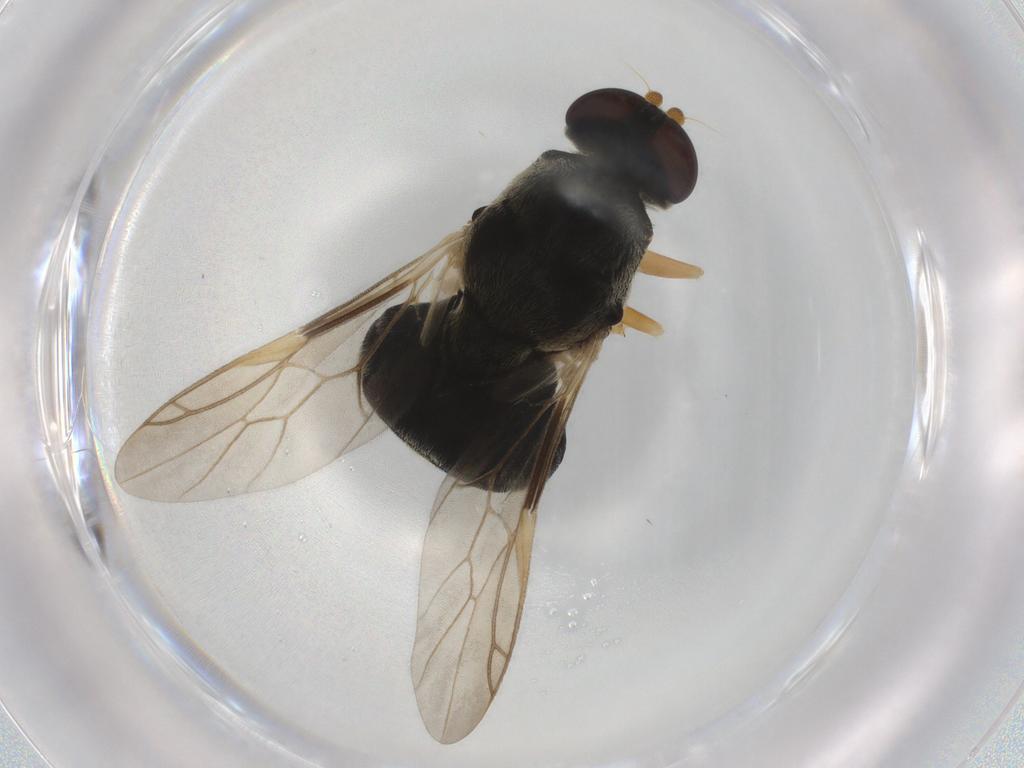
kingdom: Animalia
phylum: Arthropoda
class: Insecta
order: Diptera
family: Stratiomyidae
